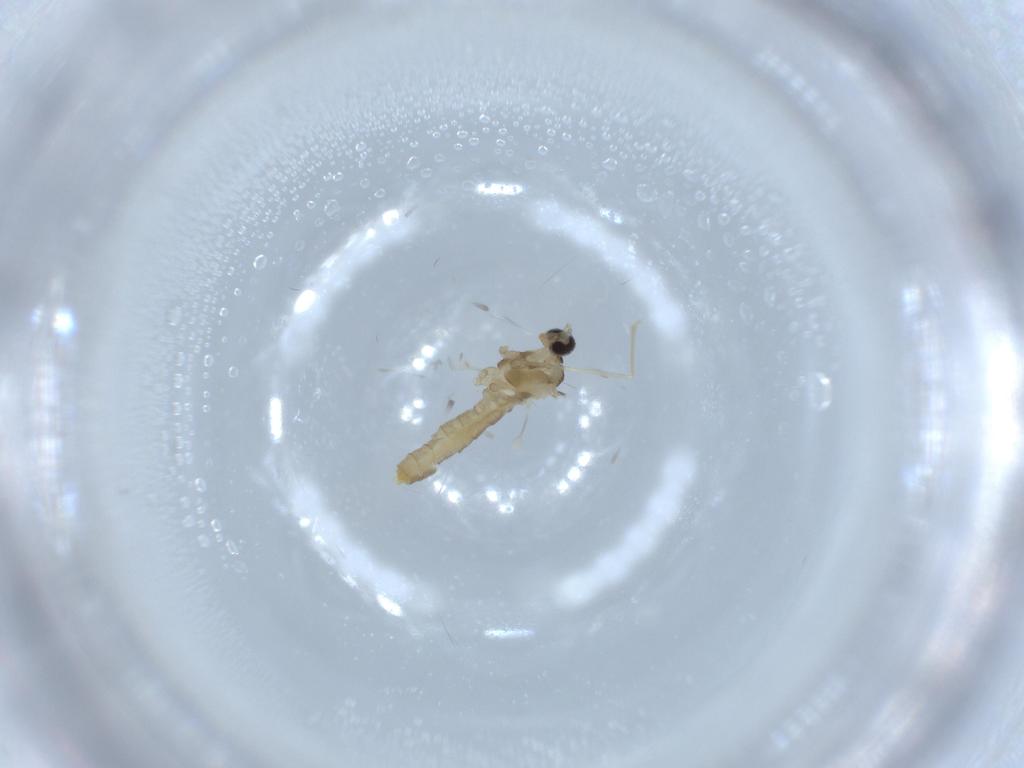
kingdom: Animalia
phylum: Arthropoda
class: Insecta
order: Diptera
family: Cecidomyiidae
